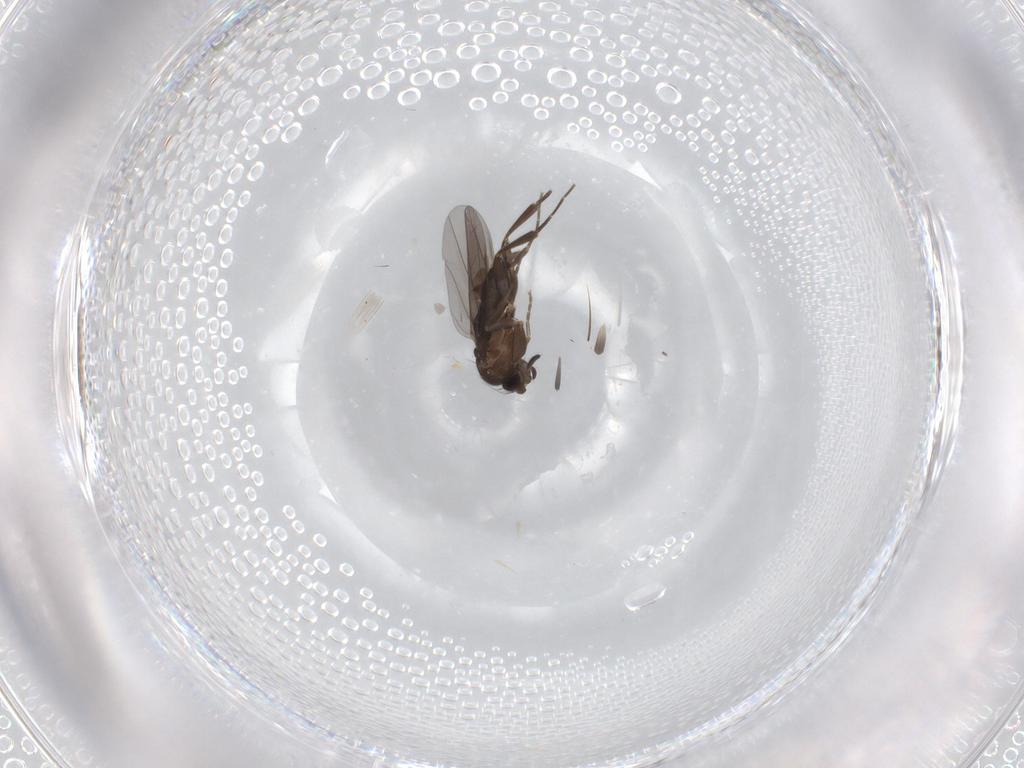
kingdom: Animalia
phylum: Arthropoda
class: Insecta
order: Diptera
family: Sciaridae
